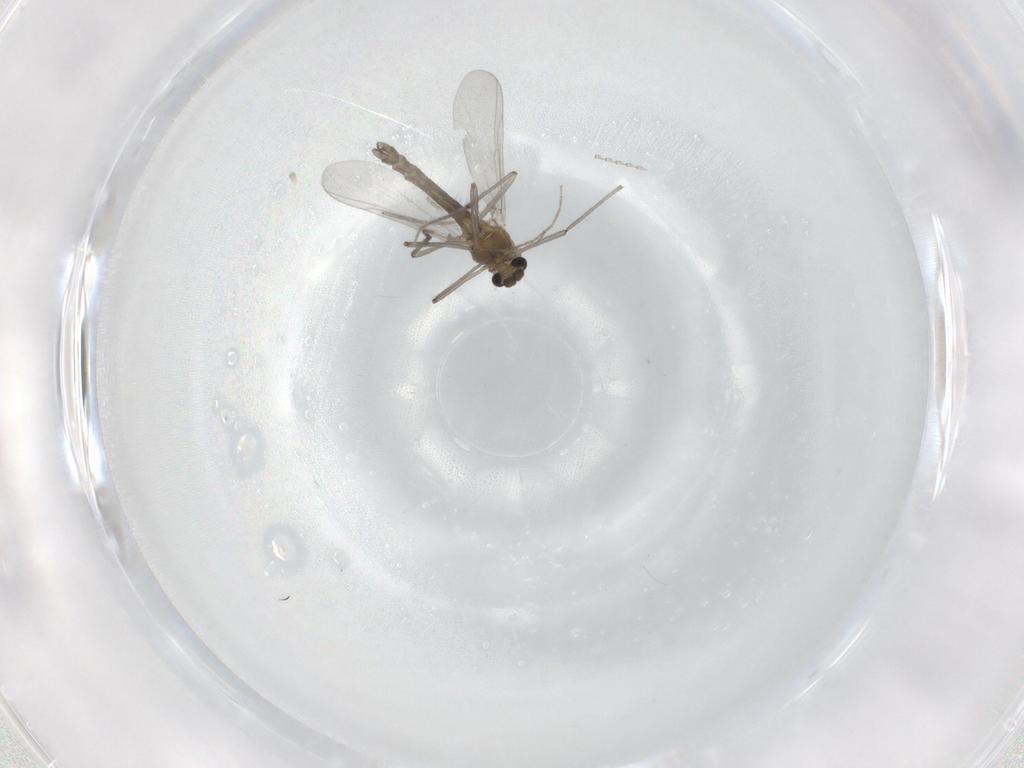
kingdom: Animalia
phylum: Arthropoda
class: Insecta
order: Diptera
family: Chironomidae
